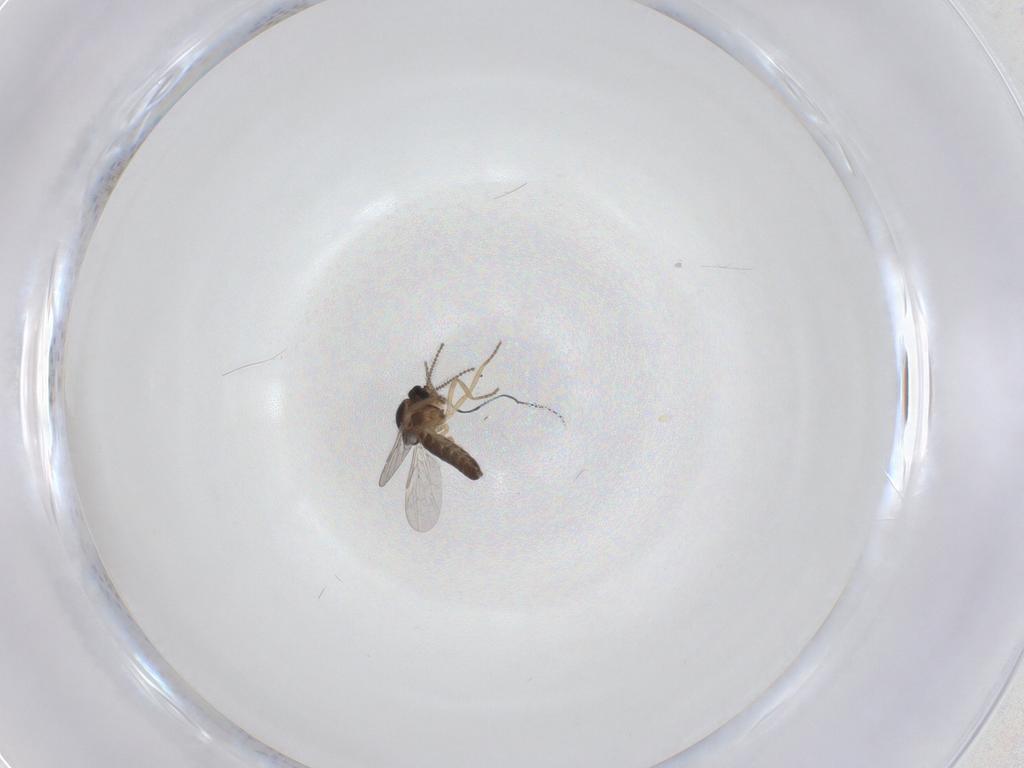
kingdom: Animalia
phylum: Arthropoda
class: Insecta
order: Diptera
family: Ceratopogonidae
